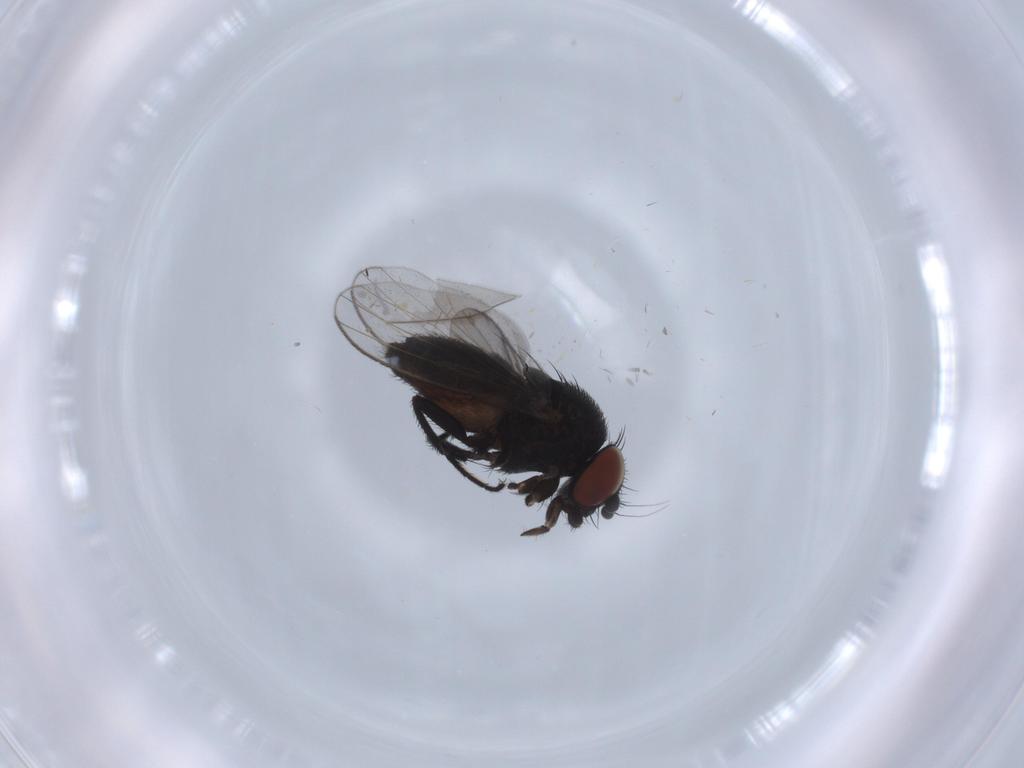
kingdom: Animalia
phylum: Arthropoda
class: Insecta
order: Diptera
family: Milichiidae
